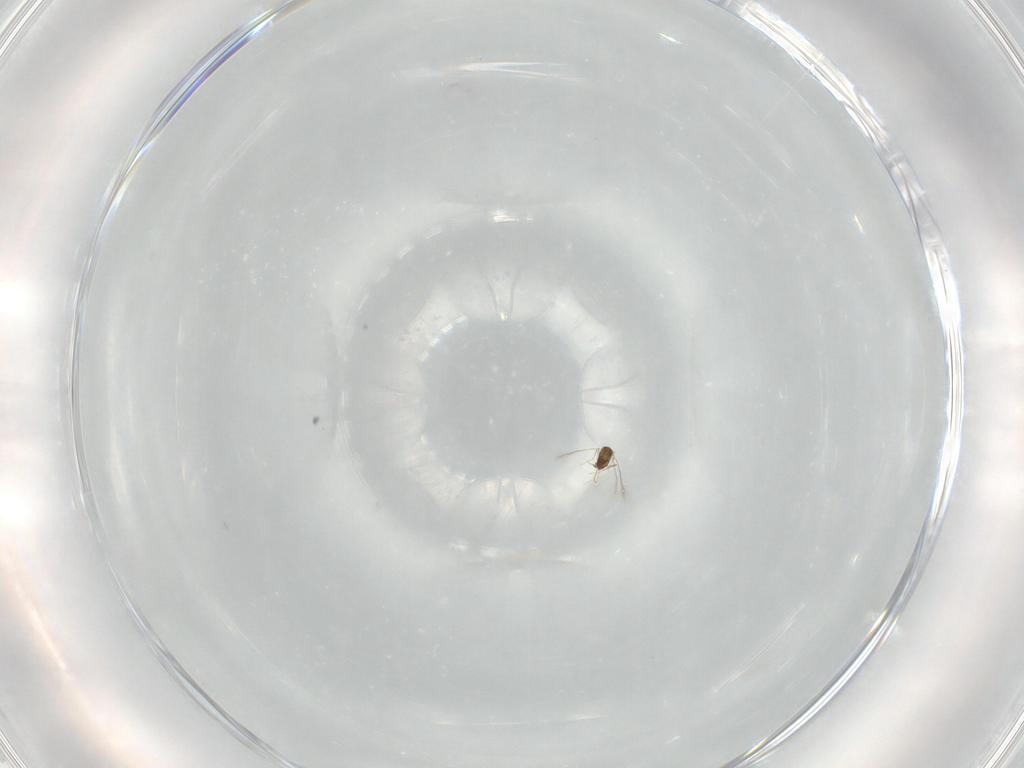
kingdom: Animalia
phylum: Arthropoda
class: Insecta
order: Hymenoptera
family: Mymaridae
